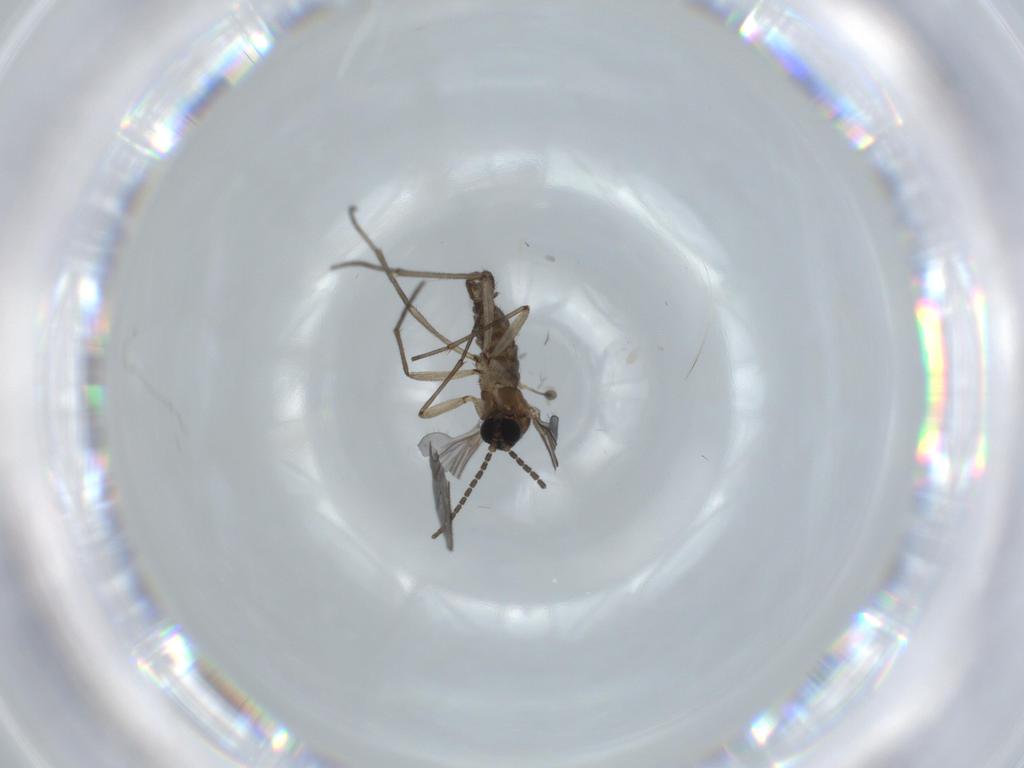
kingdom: Animalia
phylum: Arthropoda
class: Insecta
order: Diptera
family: Sciaridae
